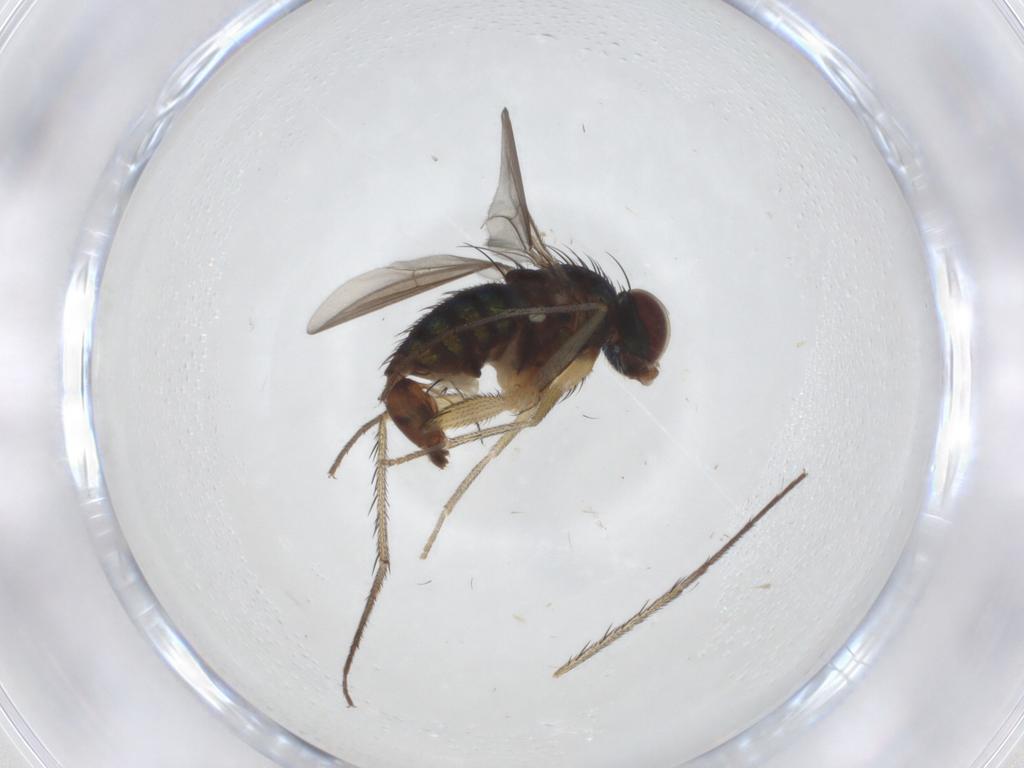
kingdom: Animalia
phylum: Arthropoda
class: Insecta
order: Diptera
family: Dolichopodidae
